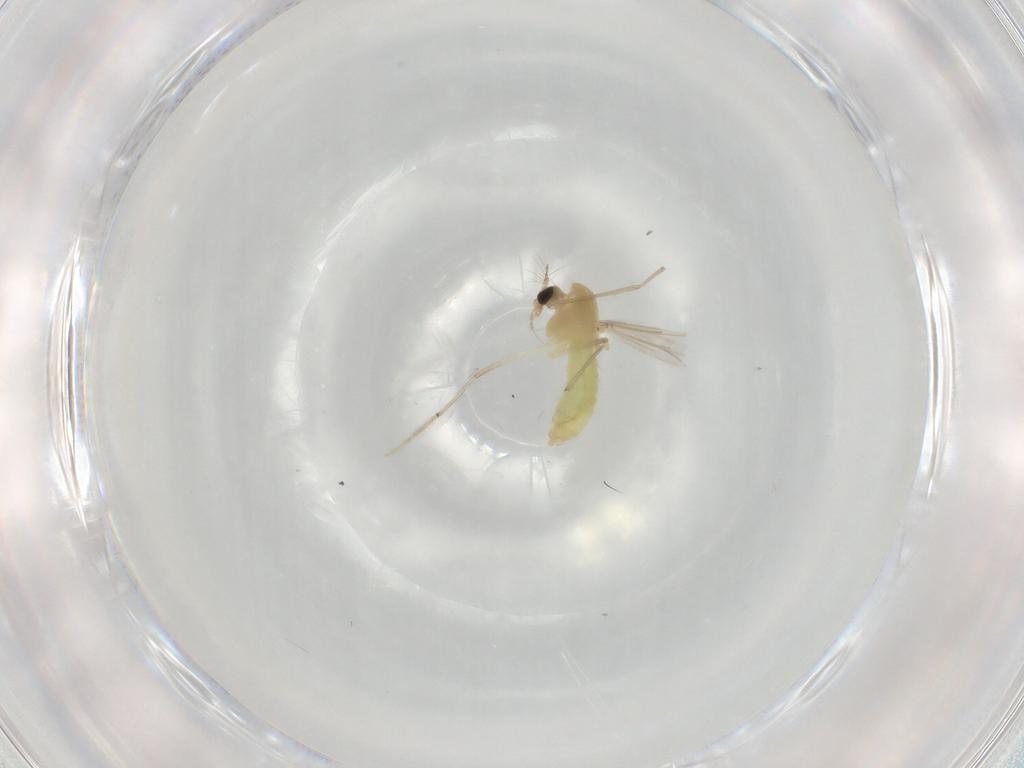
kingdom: Animalia
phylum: Arthropoda
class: Insecta
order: Diptera
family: Chironomidae
